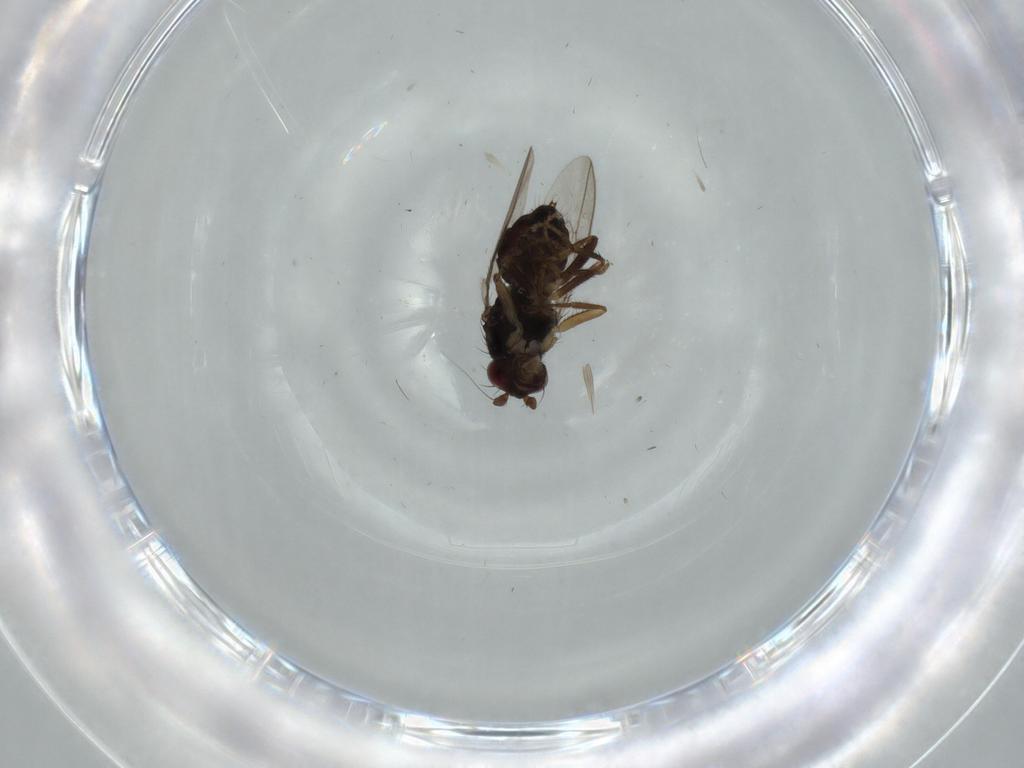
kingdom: Animalia
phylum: Arthropoda
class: Insecta
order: Diptera
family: Sphaeroceridae
